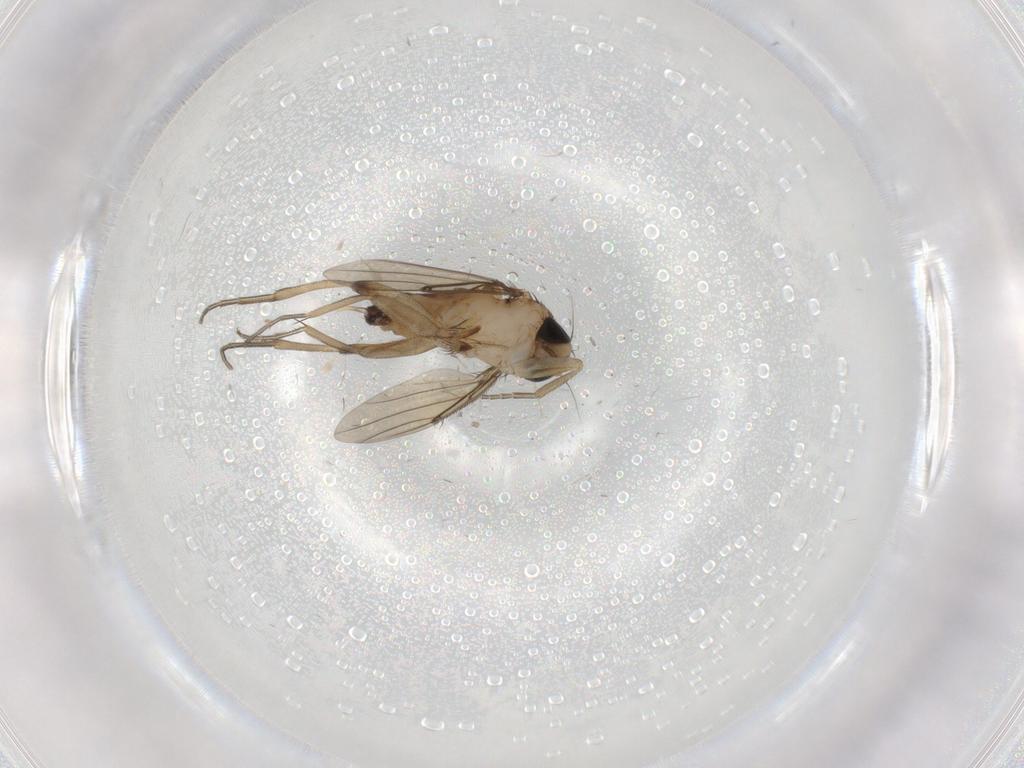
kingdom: Animalia
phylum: Arthropoda
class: Insecta
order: Diptera
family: Phoridae
